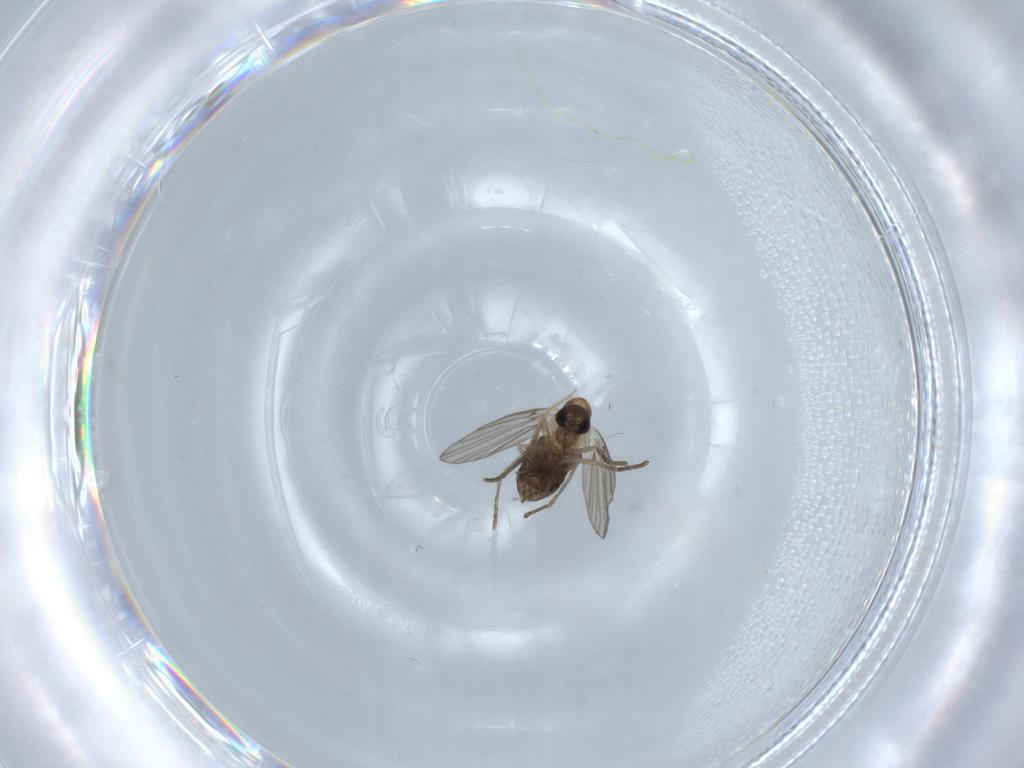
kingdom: Animalia
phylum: Arthropoda
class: Insecta
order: Diptera
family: Psychodidae
